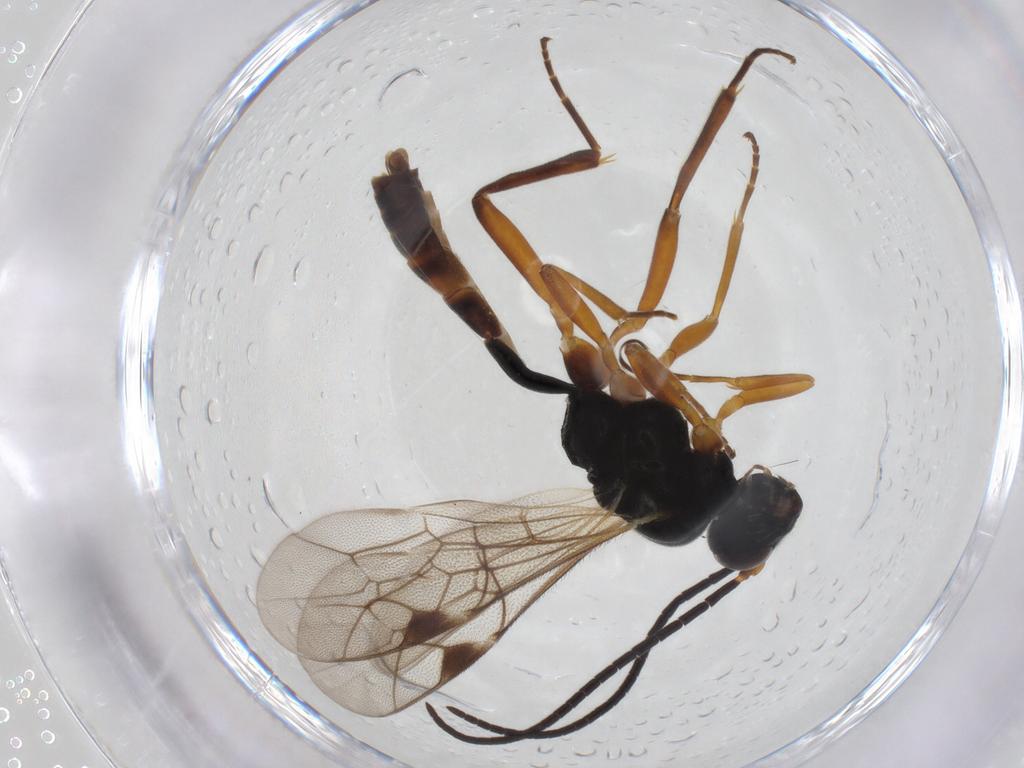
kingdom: Animalia
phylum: Arthropoda
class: Insecta
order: Hymenoptera
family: Ichneumonidae
